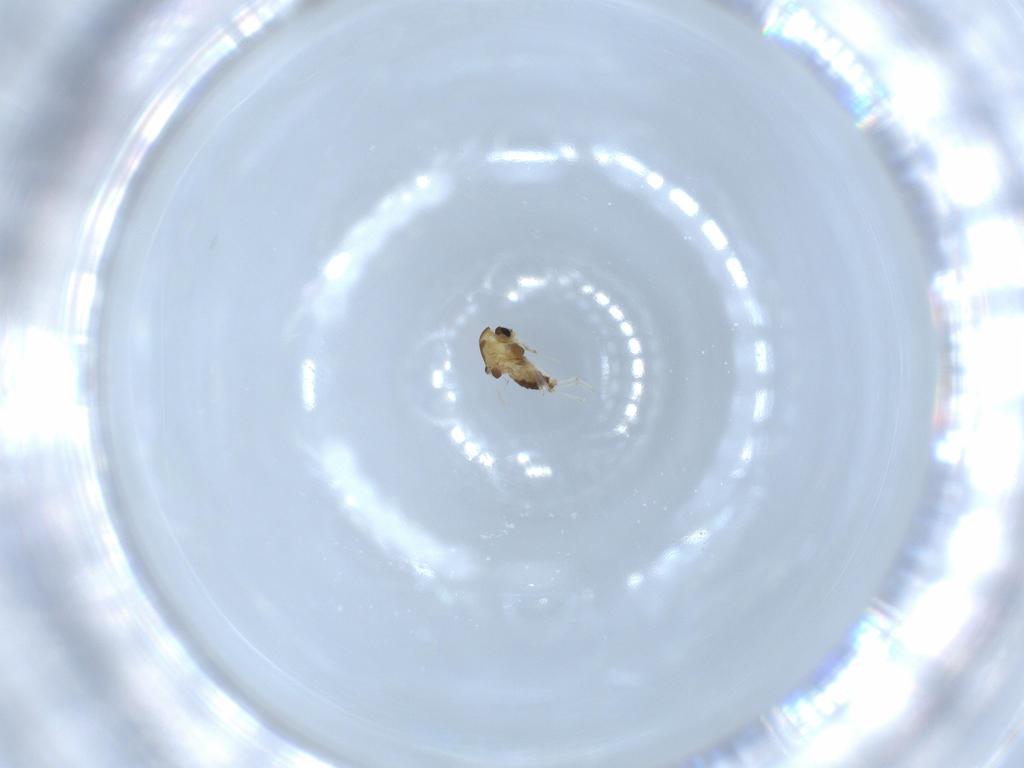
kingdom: Animalia
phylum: Arthropoda
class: Insecta
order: Diptera
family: Chironomidae
